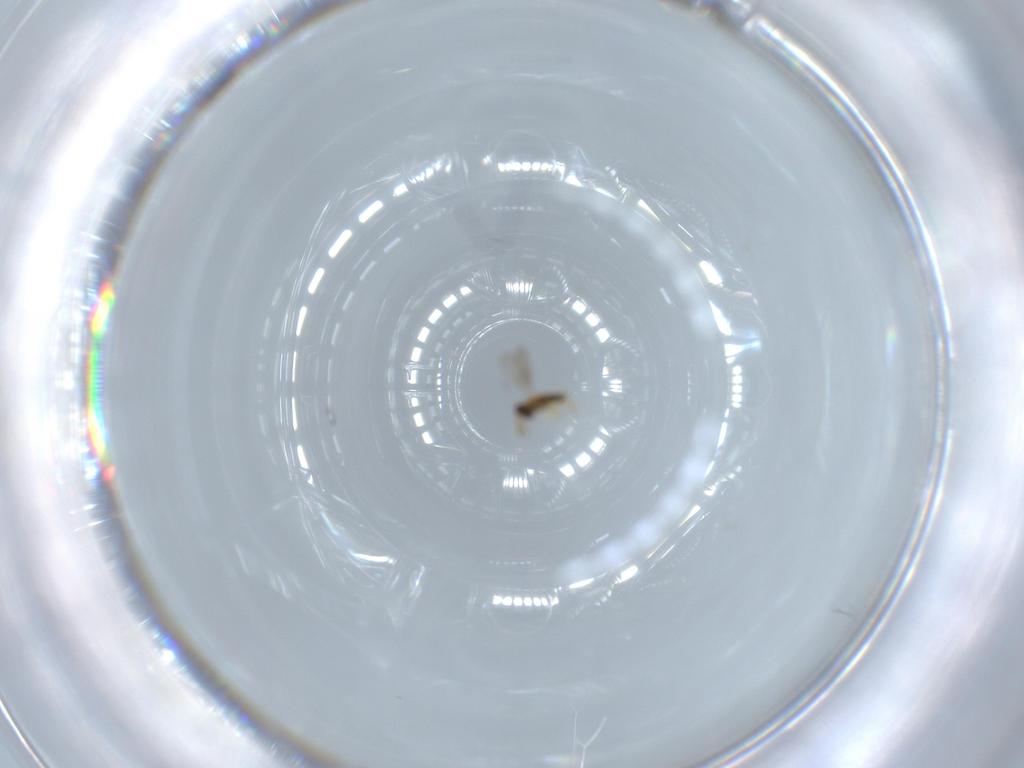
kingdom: Animalia
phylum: Arthropoda
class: Insecta
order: Hymenoptera
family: Aphelinidae
